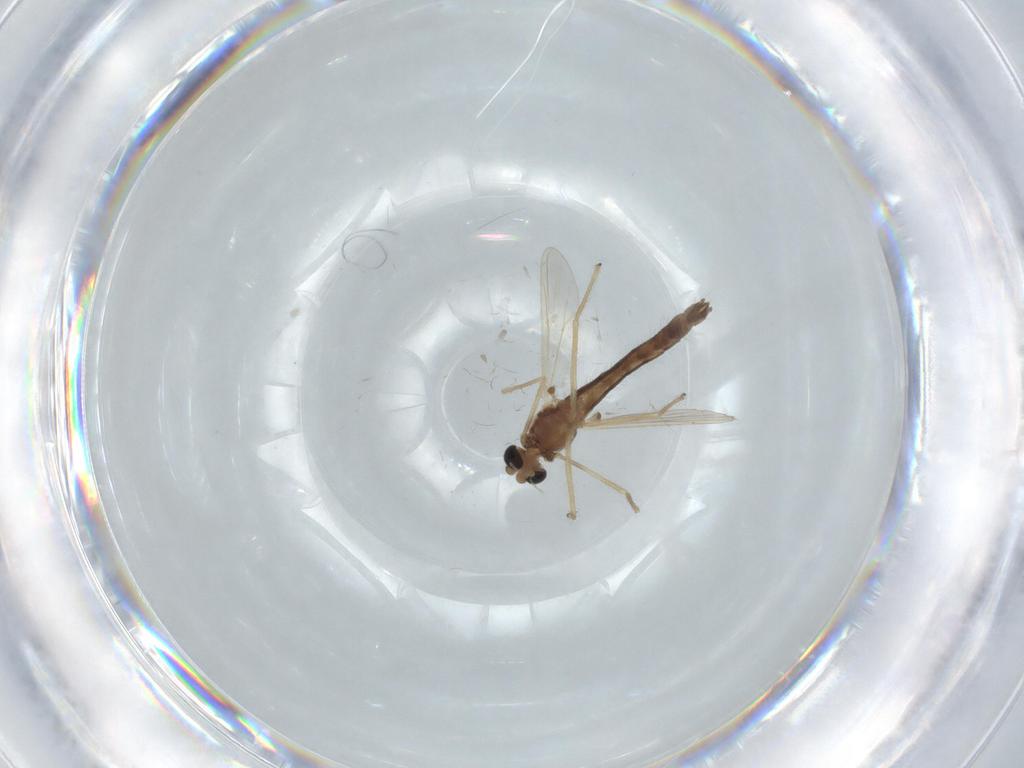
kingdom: Animalia
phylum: Arthropoda
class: Insecta
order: Diptera
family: Chironomidae
